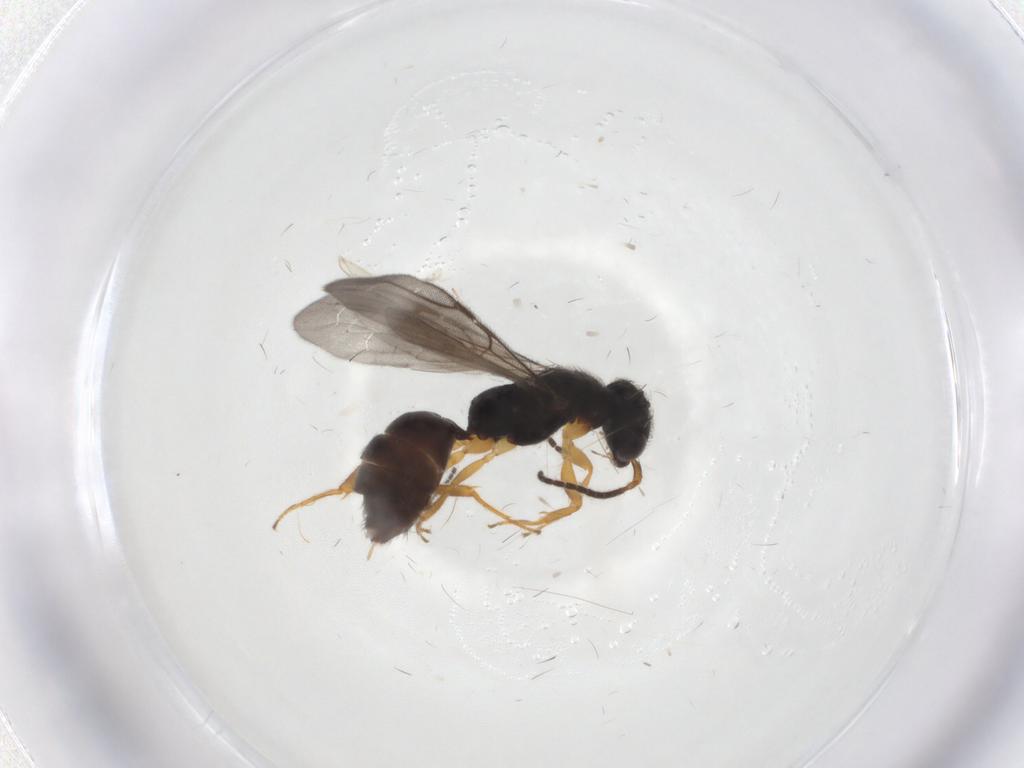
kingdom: Animalia
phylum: Arthropoda
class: Insecta
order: Hymenoptera
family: Bethylidae
